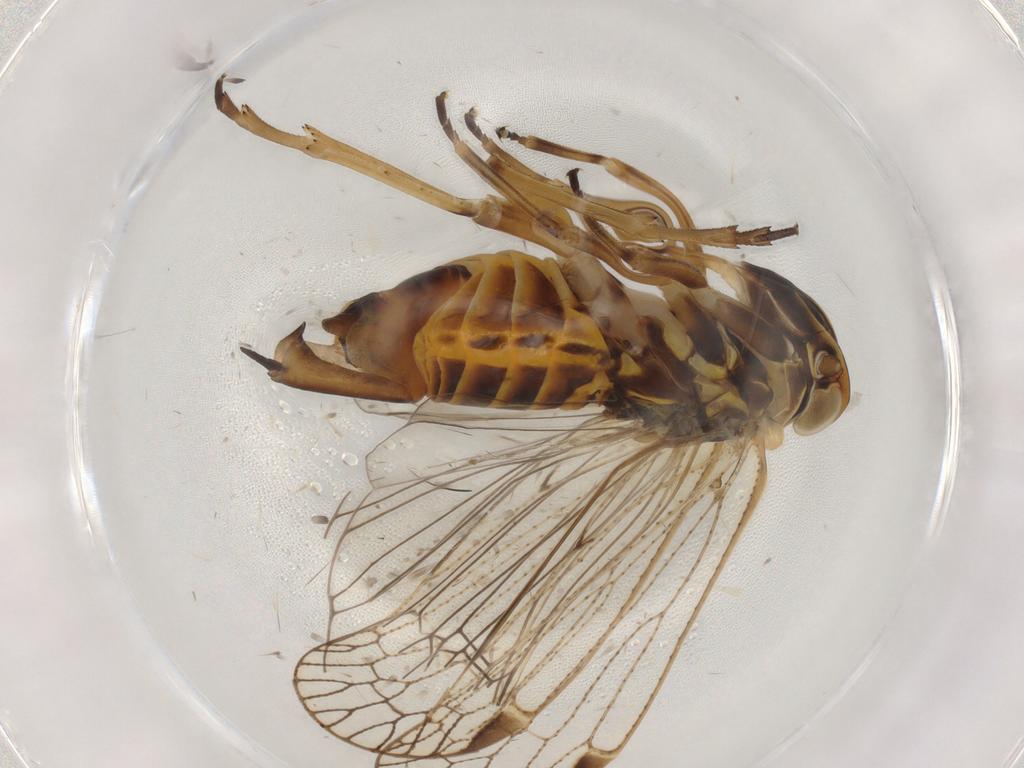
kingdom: Animalia
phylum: Arthropoda
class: Insecta
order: Hemiptera
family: Cixiidae
